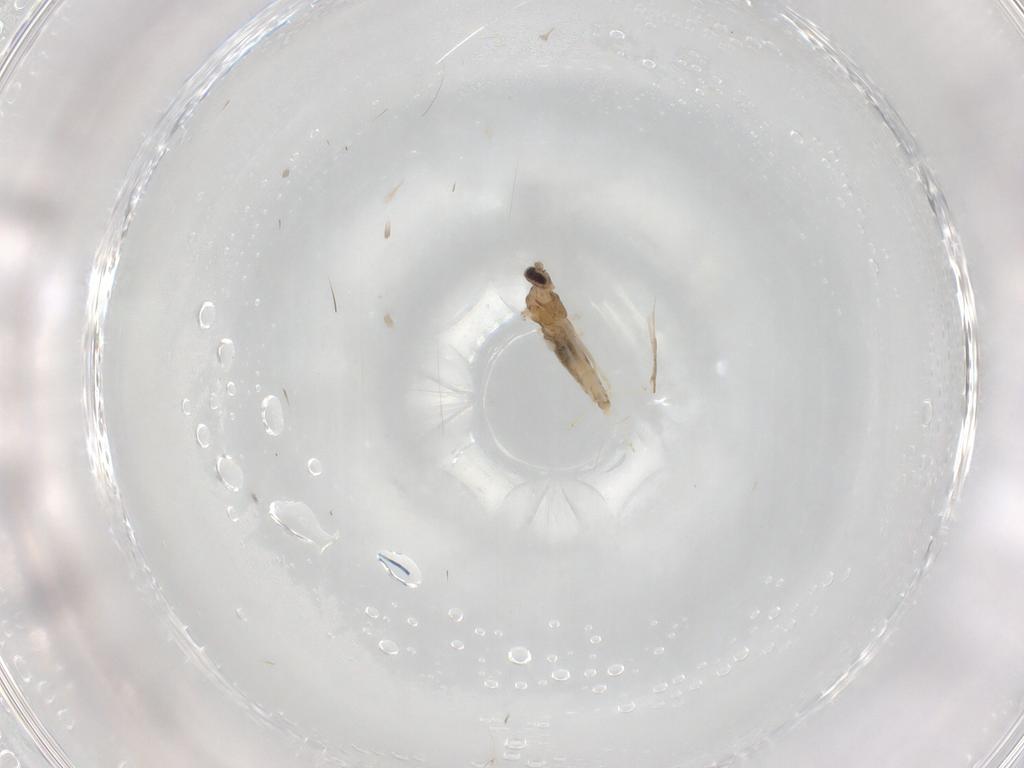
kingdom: Animalia
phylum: Arthropoda
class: Insecta
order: Diptera
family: Cecidomyiidae
